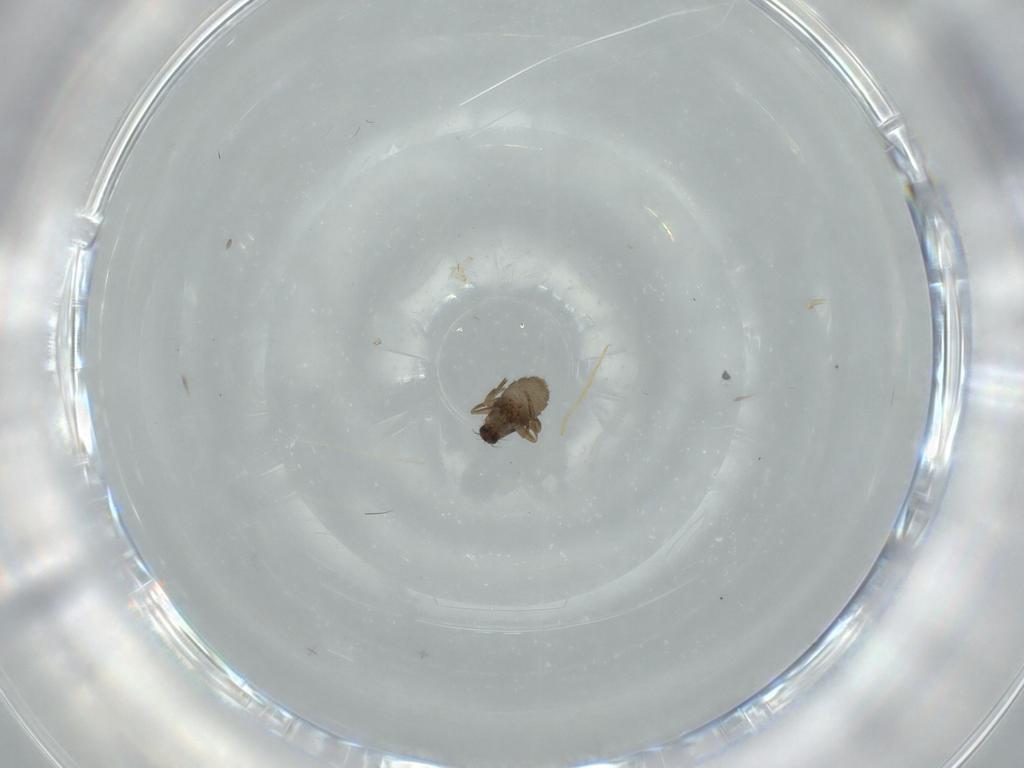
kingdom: Animalia
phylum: Arthropoda
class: Insecta
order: Diptera
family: Phoridae
